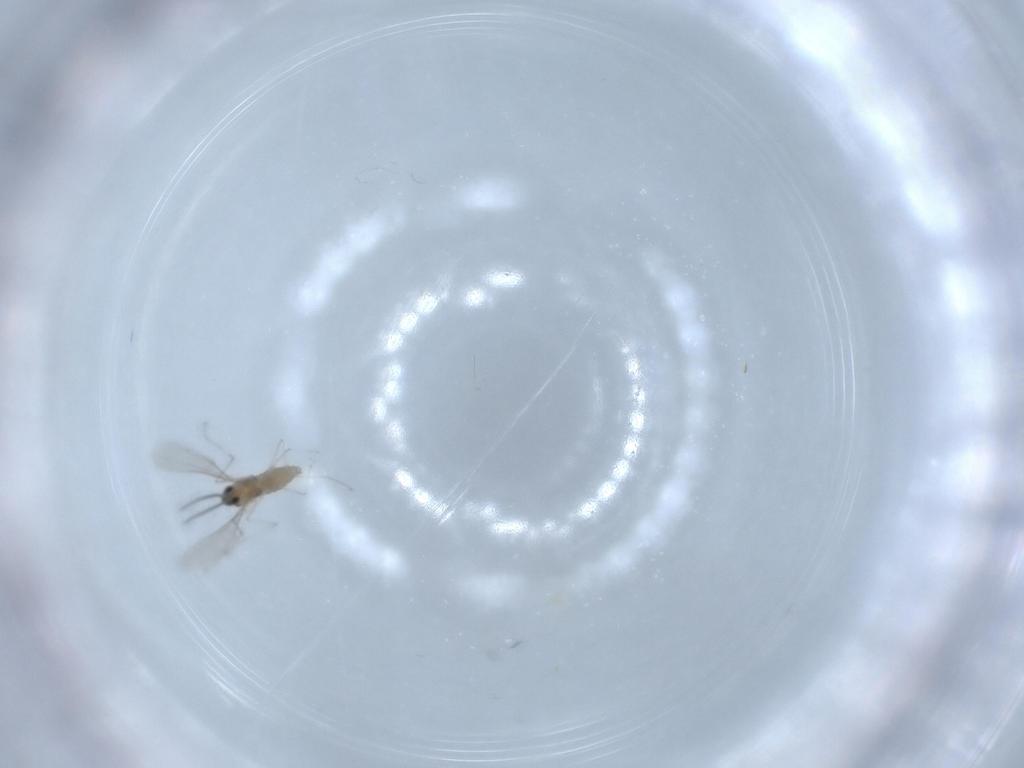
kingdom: Animalia
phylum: Arthropoda
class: Insecta
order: Diptera
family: Cecidomyiidae
